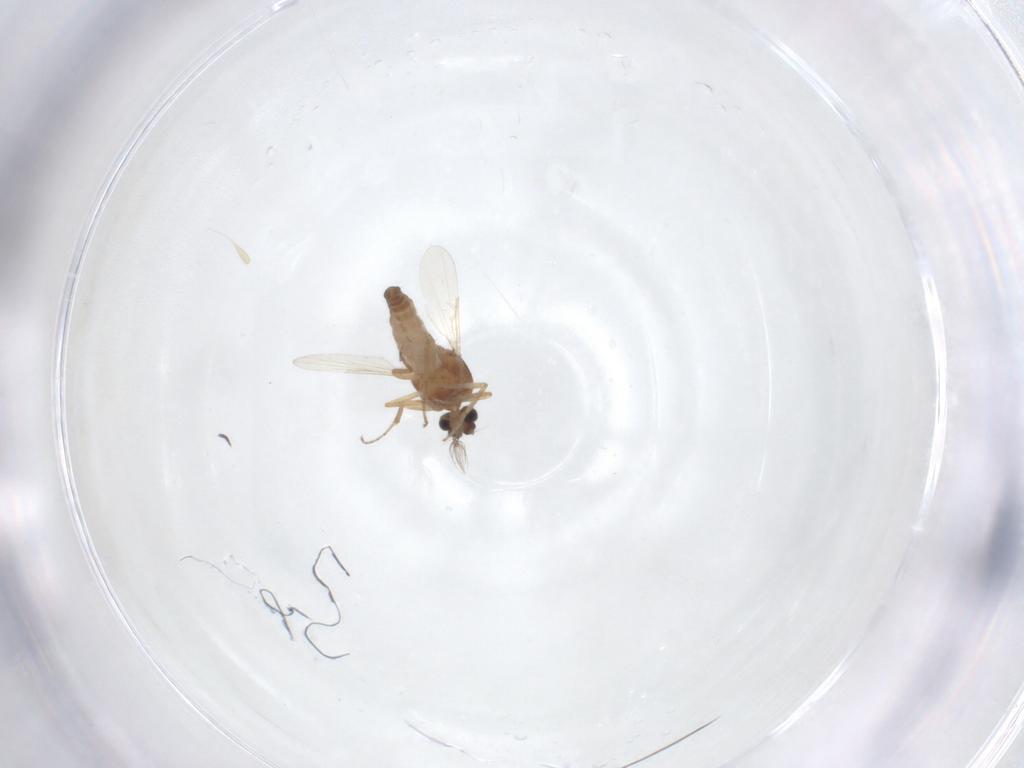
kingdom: Animalia
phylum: Arthropoda
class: Insecta
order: Diptera
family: Ceratopogonidae
